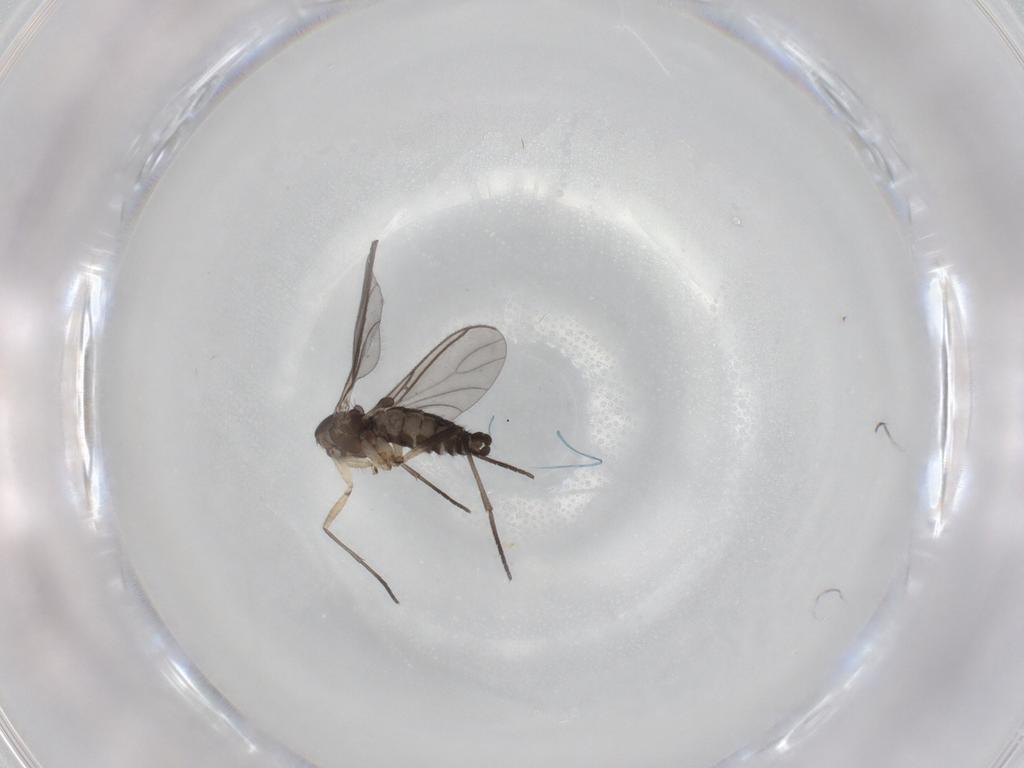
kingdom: Animalia
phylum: Arthropoda
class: Insecta
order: Diptera
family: Sciaridae
